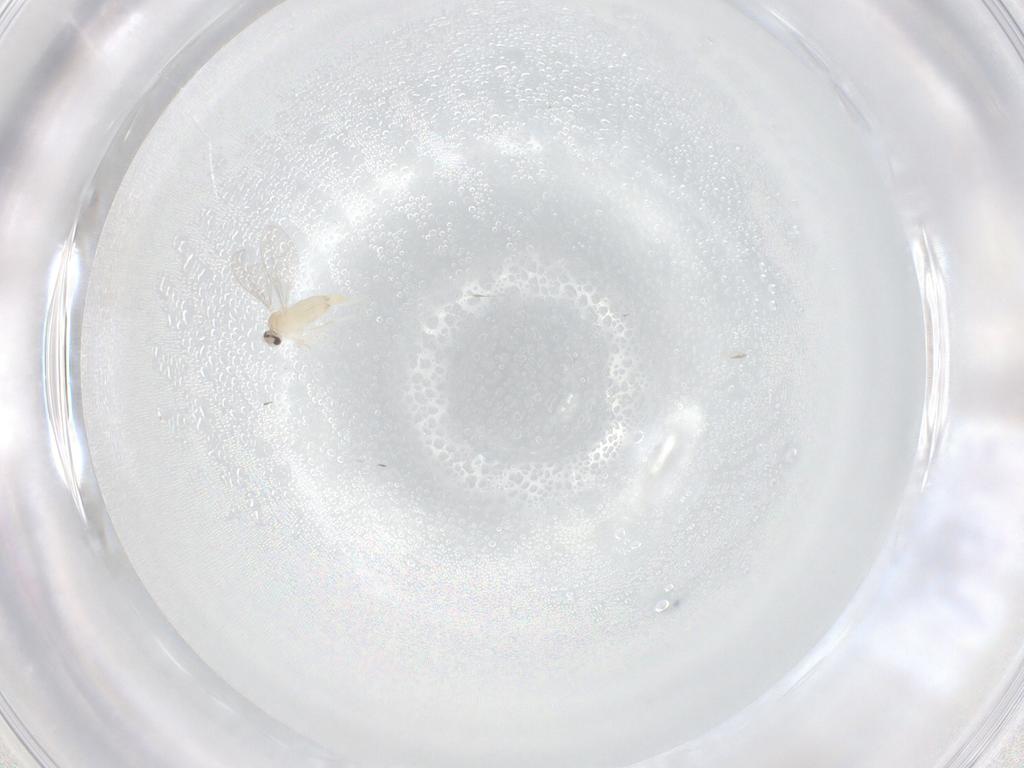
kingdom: Animalia
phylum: Arthropoda
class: Insecta
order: Diptera
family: Cecidomyiidae
